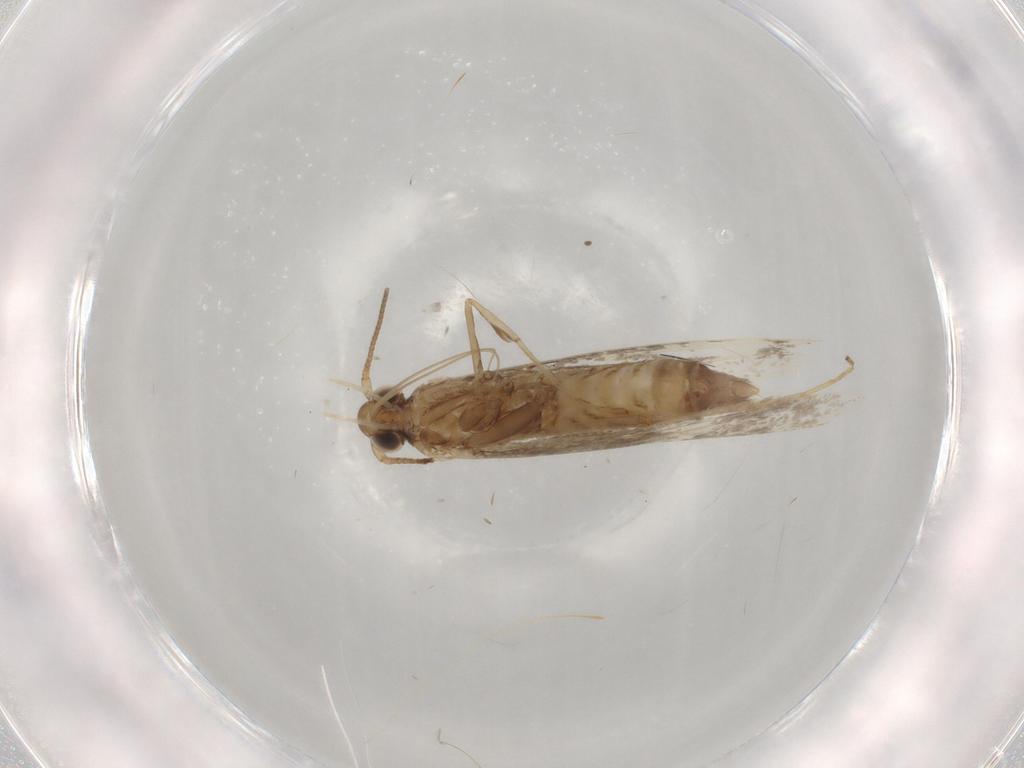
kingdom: Animalia
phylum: Arthropoda
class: Insecta
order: Lepidoptera
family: Gracillariidae
